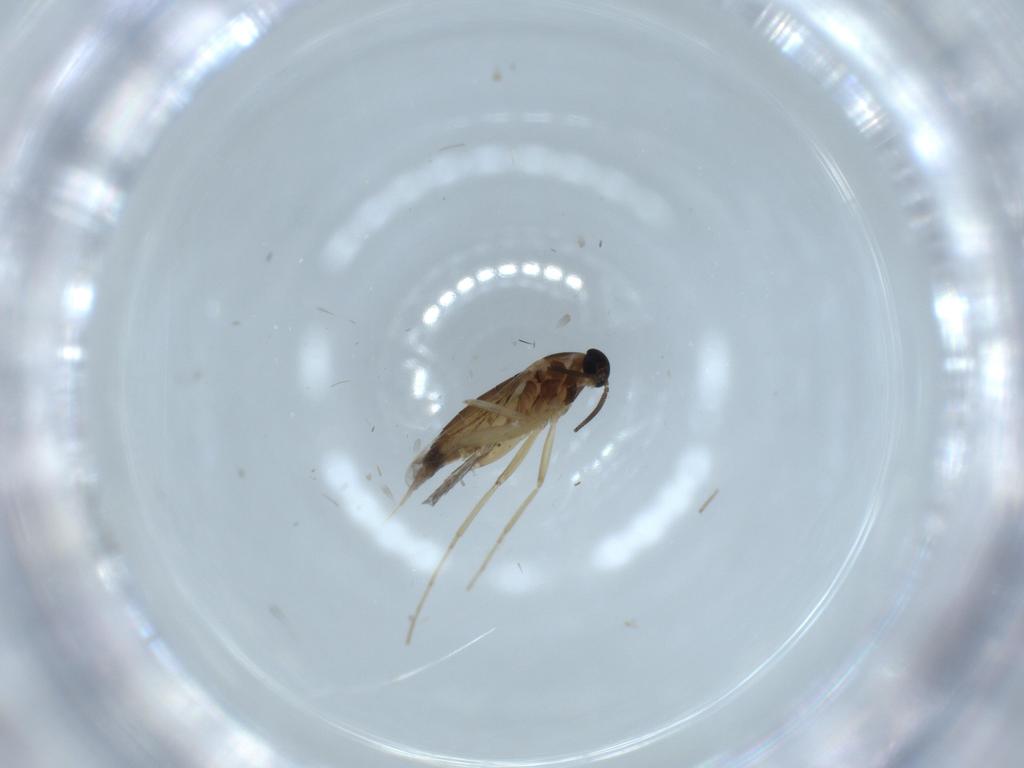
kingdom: Animalia
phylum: Arthropoda
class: Insecta
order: Diptera
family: Cecidomyiidae
